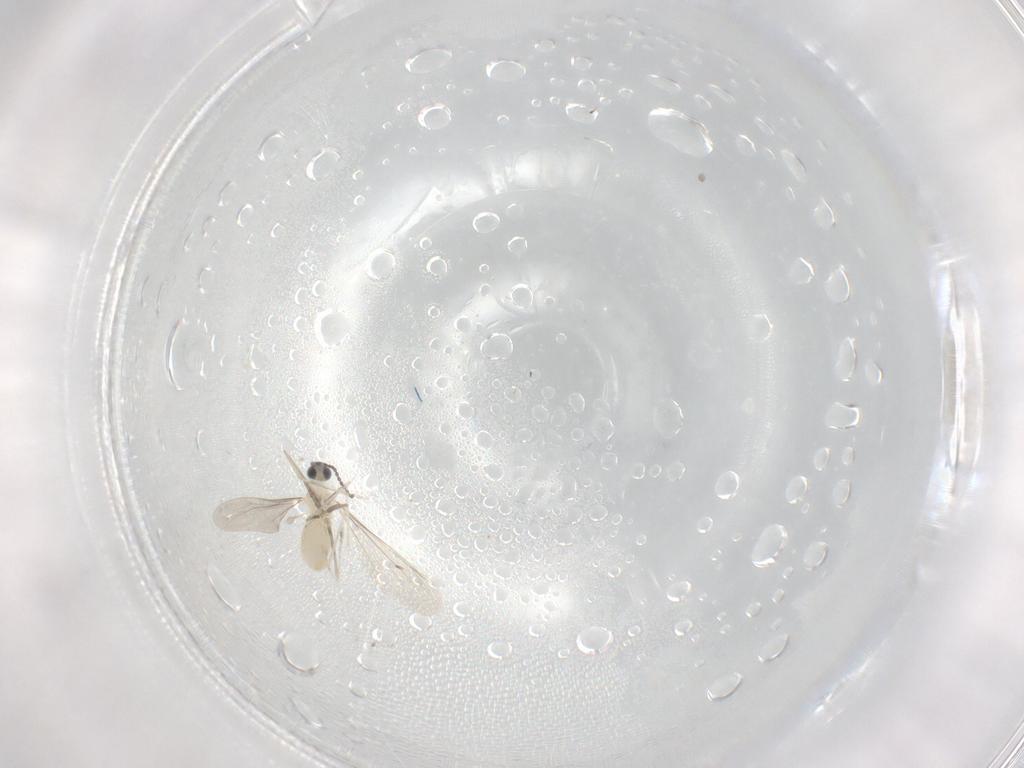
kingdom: Animalia
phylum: Arthropoda
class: Insecta
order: Diptera
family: Cecidomyiidae
